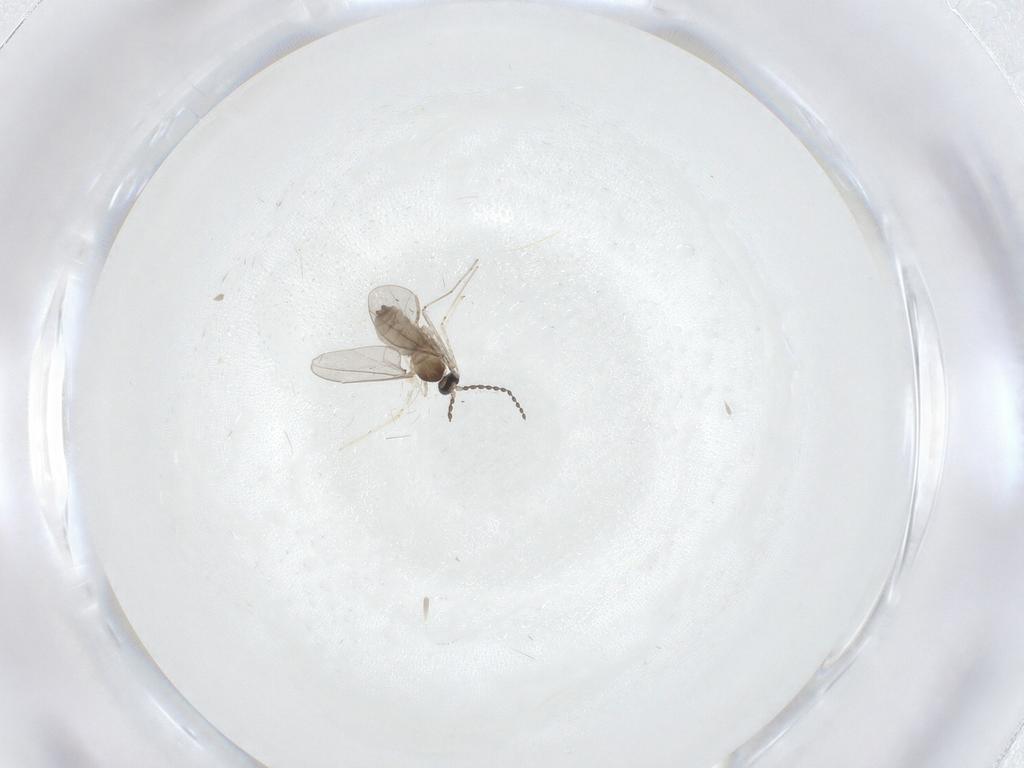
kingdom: Animalia
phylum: Arthropoda
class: Insecta
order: Diptera
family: Cecidomyiidae
